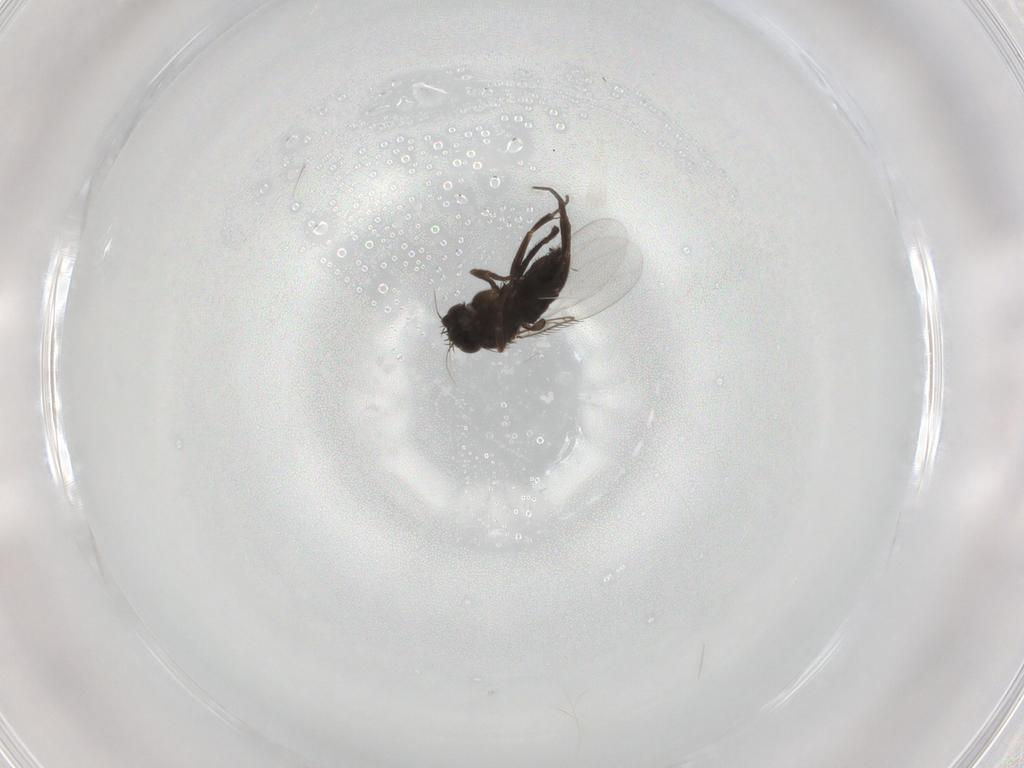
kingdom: Animalia
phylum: Arthropoda
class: Insecta
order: Diptera
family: Phoridae
